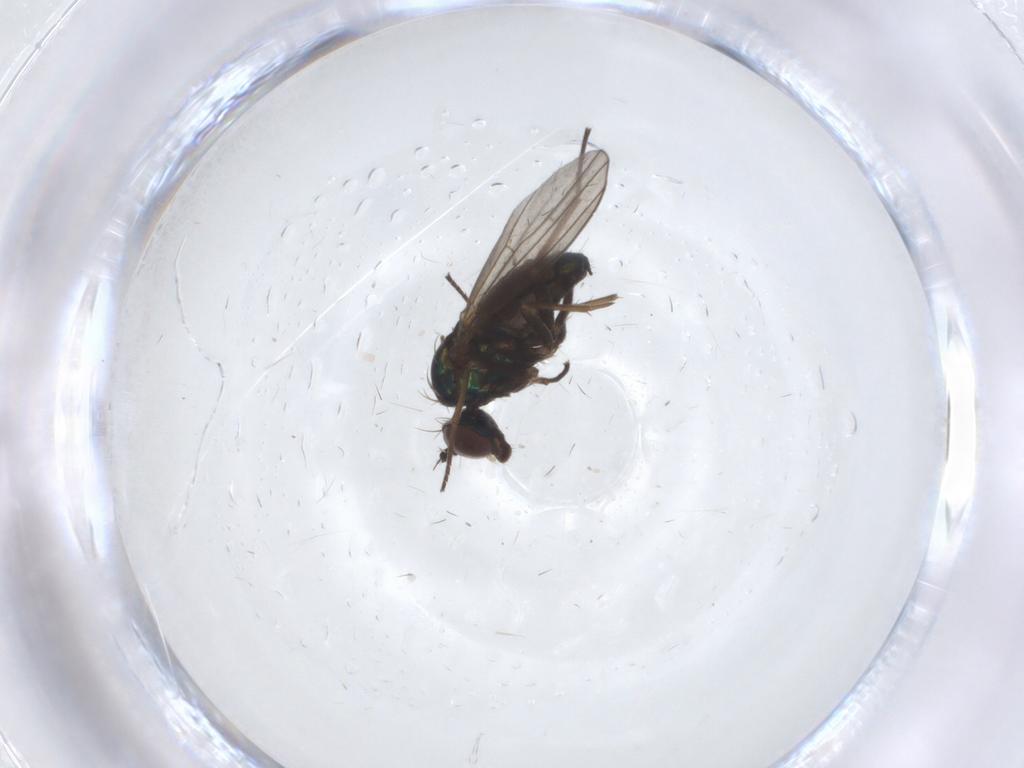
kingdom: Animalia
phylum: Arthropoda
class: Insecta
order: Diptera
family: Dolichopodidae
